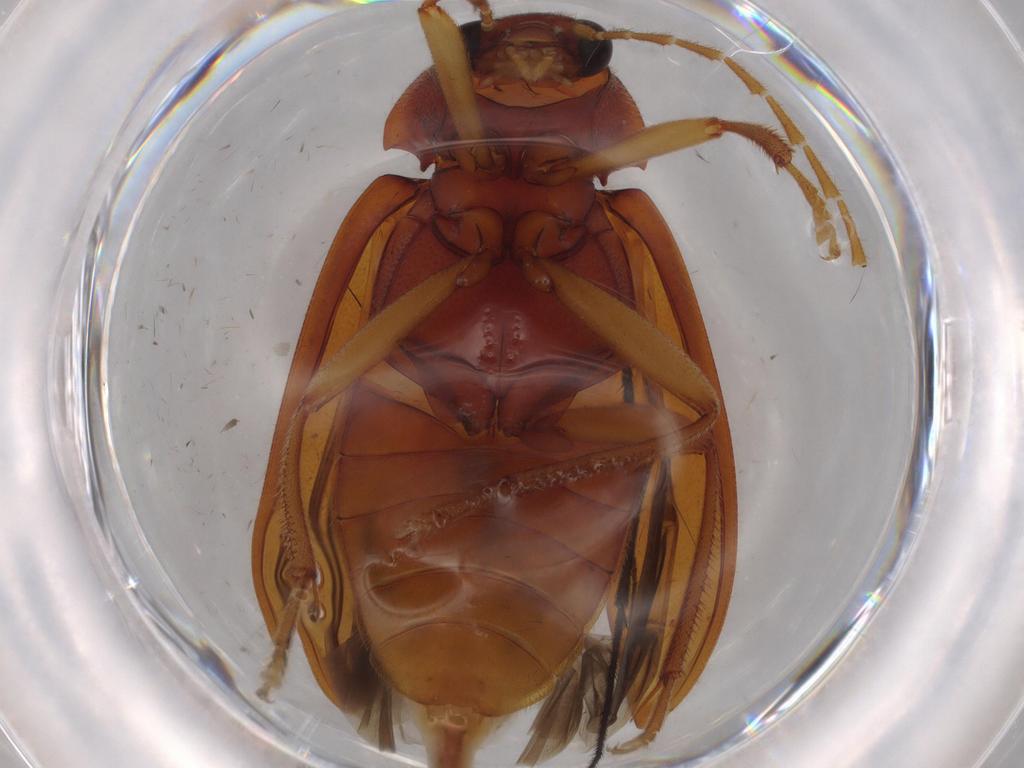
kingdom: Animalia
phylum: Arthropoda
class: Insecta
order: Coleoptera
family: Ptilodactylidae
